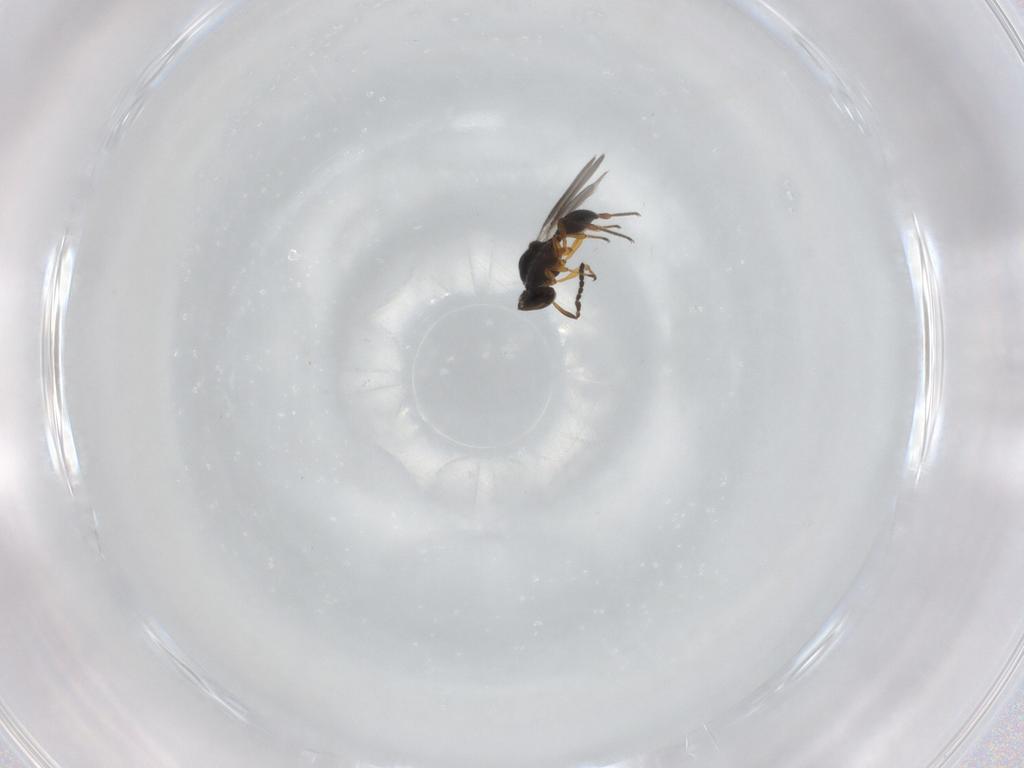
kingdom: Animalia
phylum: Arthropoda
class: Insecta
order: Hymenoptera
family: Platygastridae
